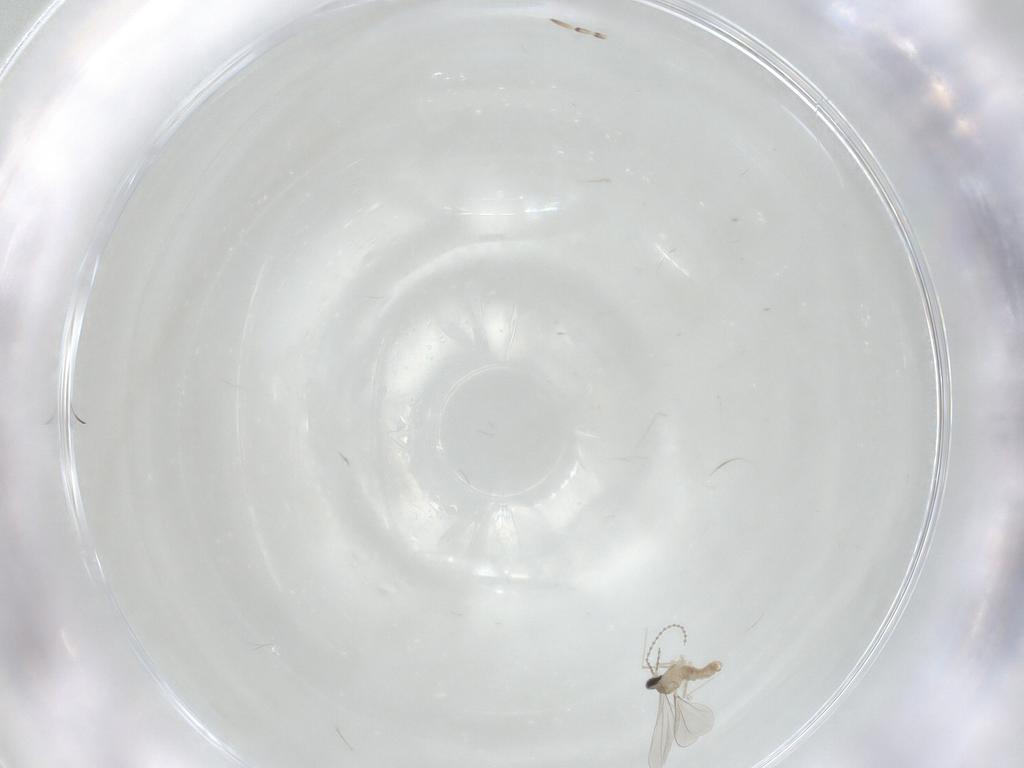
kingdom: Animalia
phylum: Arthropoda
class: Insecta
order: Diptera
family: Cecidomyiidae
